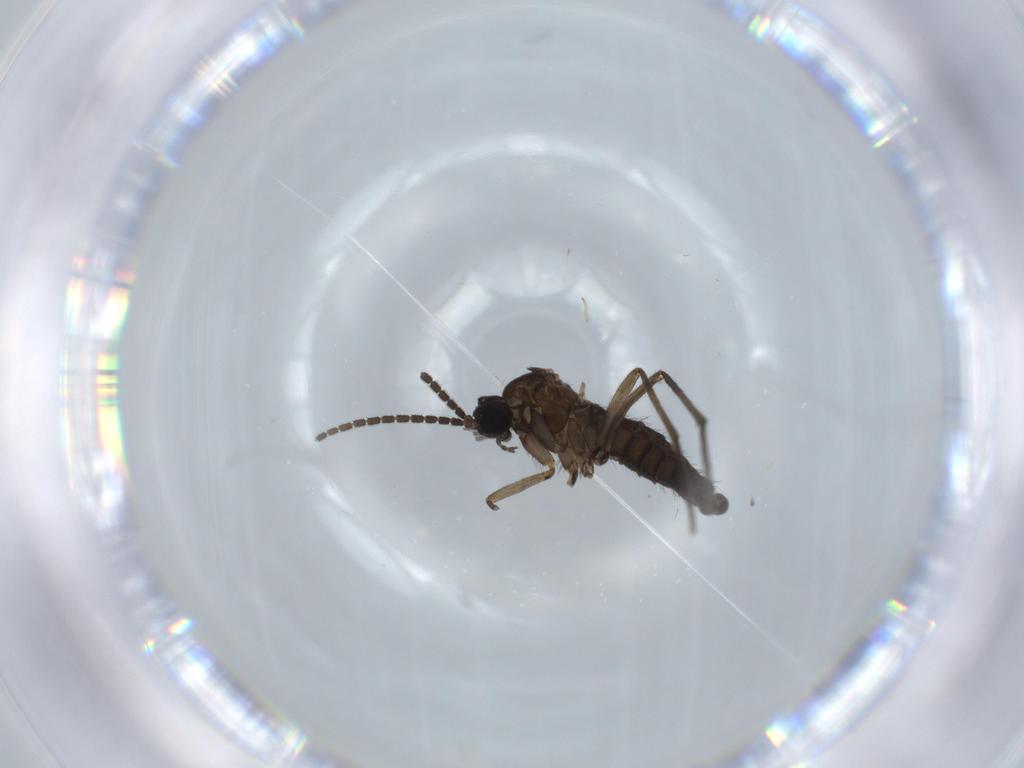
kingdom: Animalia
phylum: Arthropoda
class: Insecta
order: Diptera
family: Sciaridae
